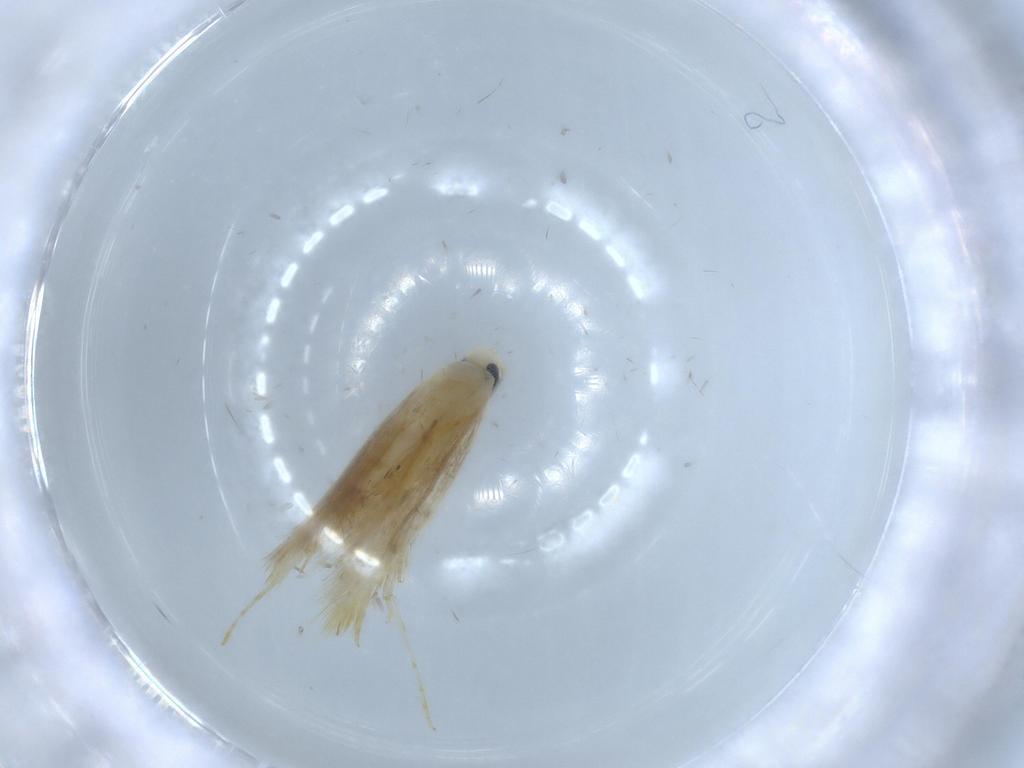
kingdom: Animalia
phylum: Arthropoda
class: Insecta
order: Lepidoptera
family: Tischeriidae
